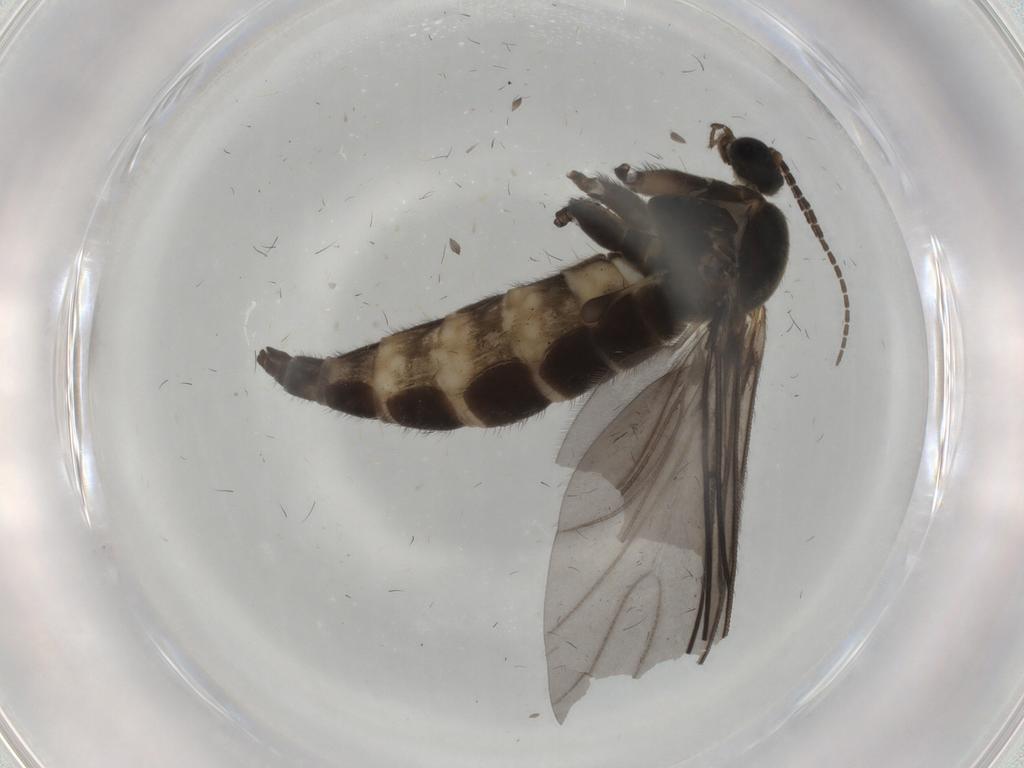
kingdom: Animalia
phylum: Arthropoda
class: Insecta
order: Diptera
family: Sciaridae
